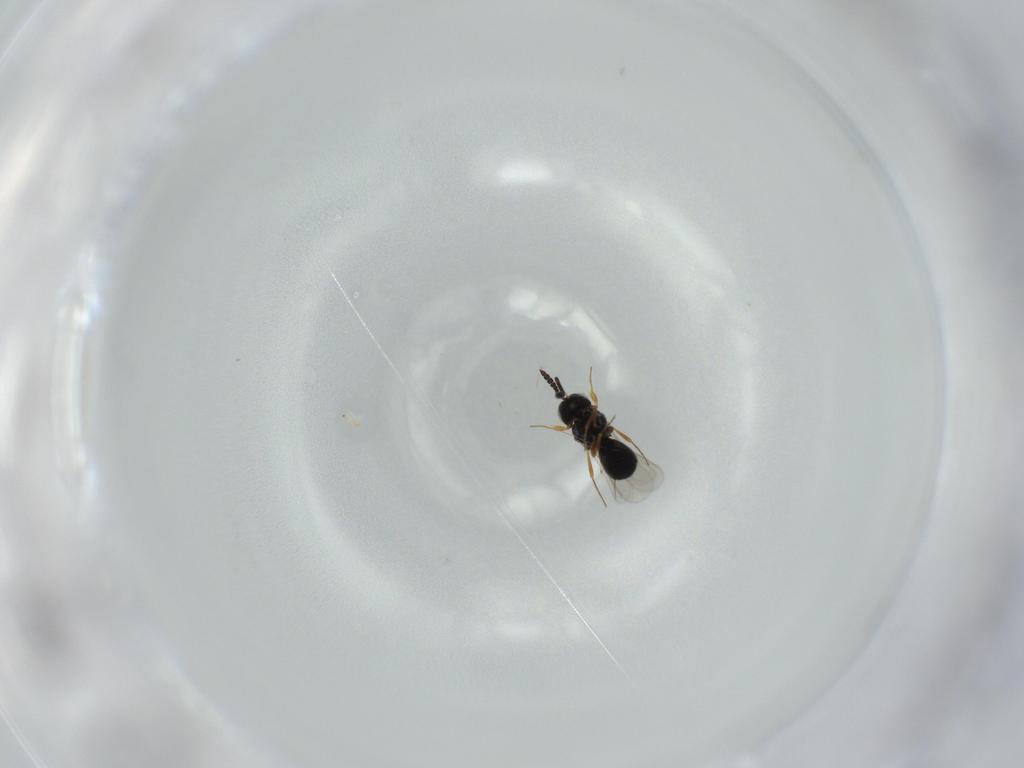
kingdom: Animalia
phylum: Arthropoda
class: Insecta
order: Hymenoptera
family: Scelionidae
